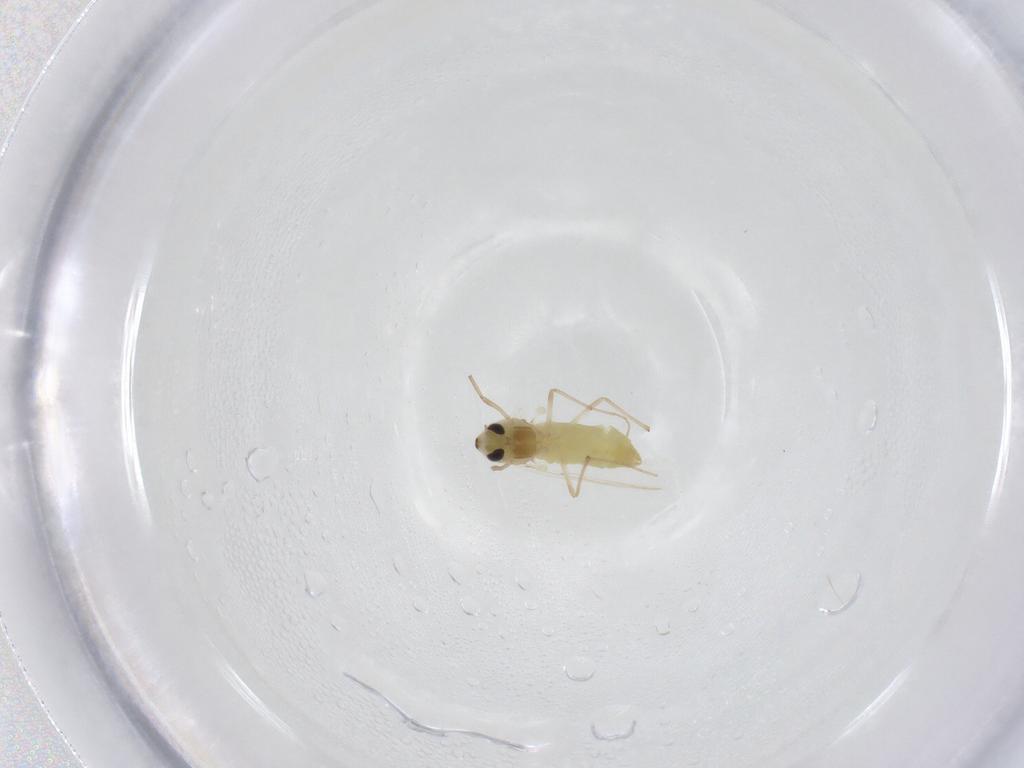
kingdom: Animalia
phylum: Arthropoda
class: Insecta
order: Diptera
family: Chironomidae
